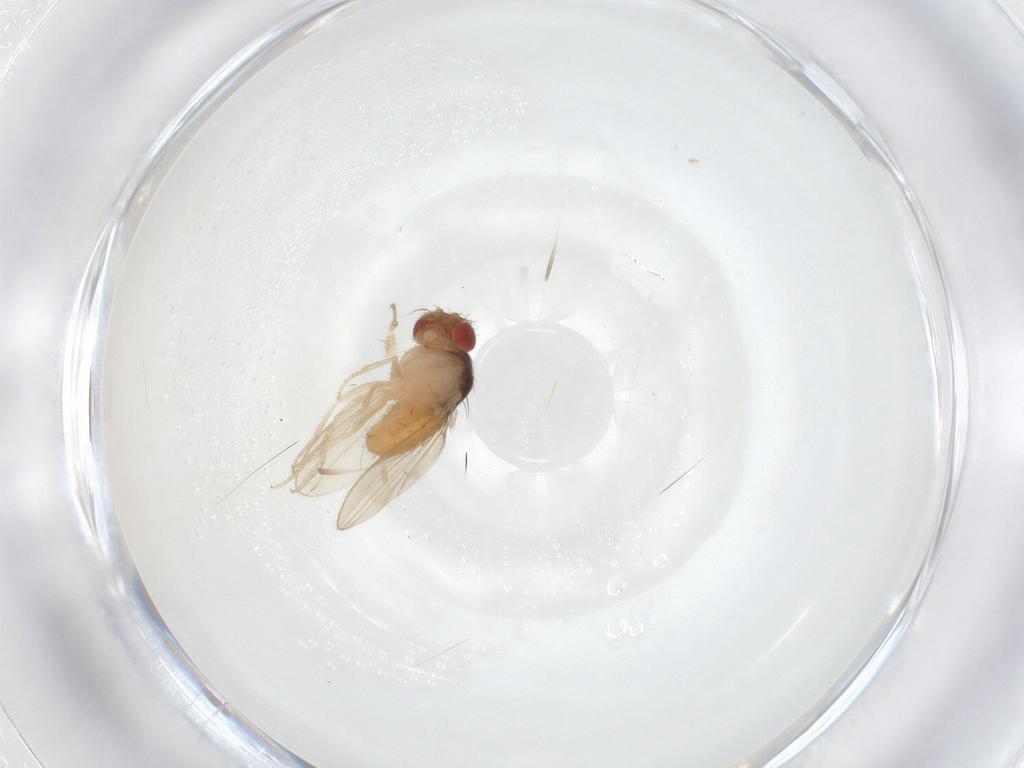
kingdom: Animalia
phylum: Arthropoda
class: Insecta
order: Diptera
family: Drosophilidae
